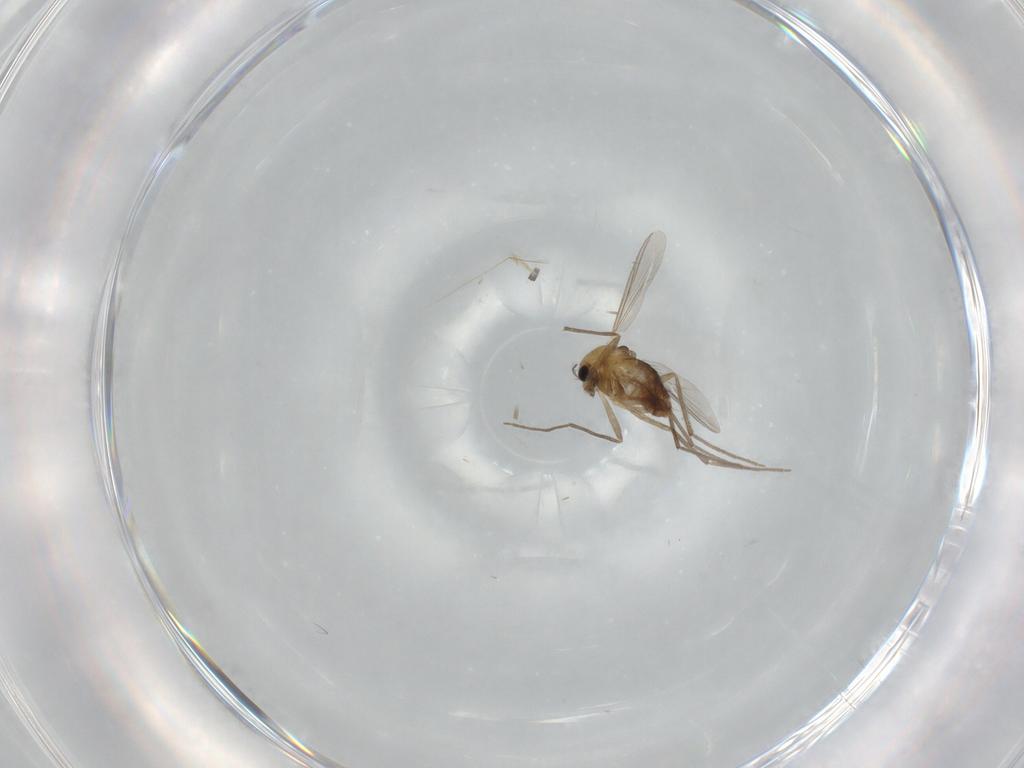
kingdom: Animalia
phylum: Arthropoda
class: Insecta
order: Diptera
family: Chironomidae
